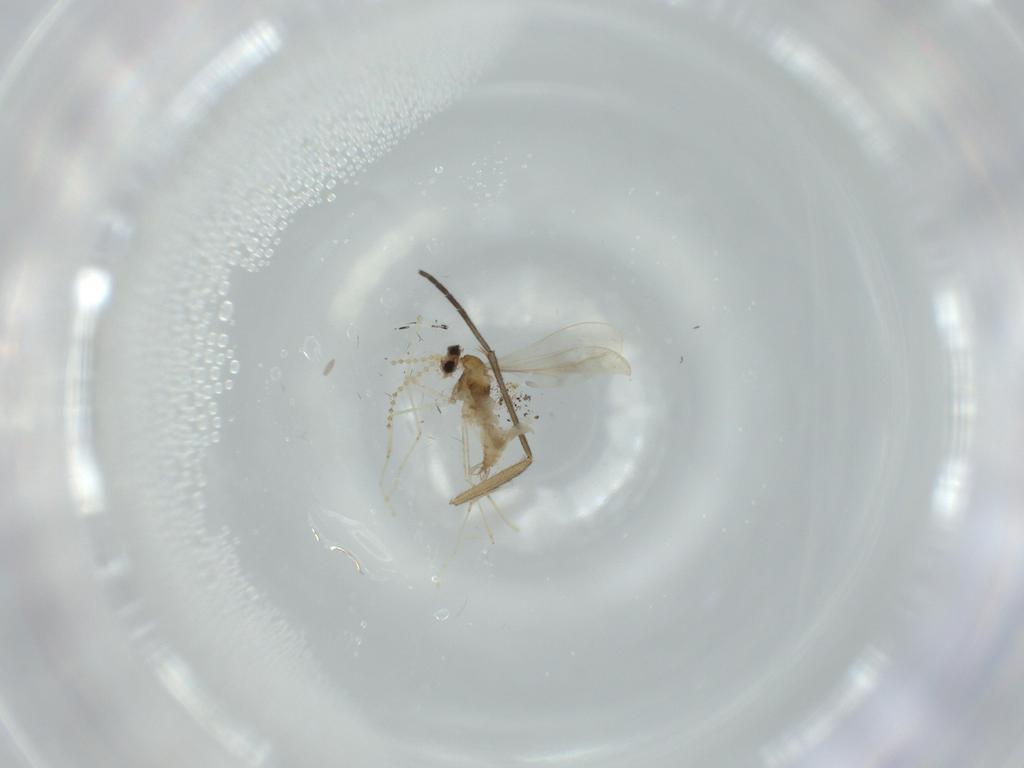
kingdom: Animalia
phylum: Arthropoda
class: Insecta
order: Diptera
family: Cecidomyiidae
